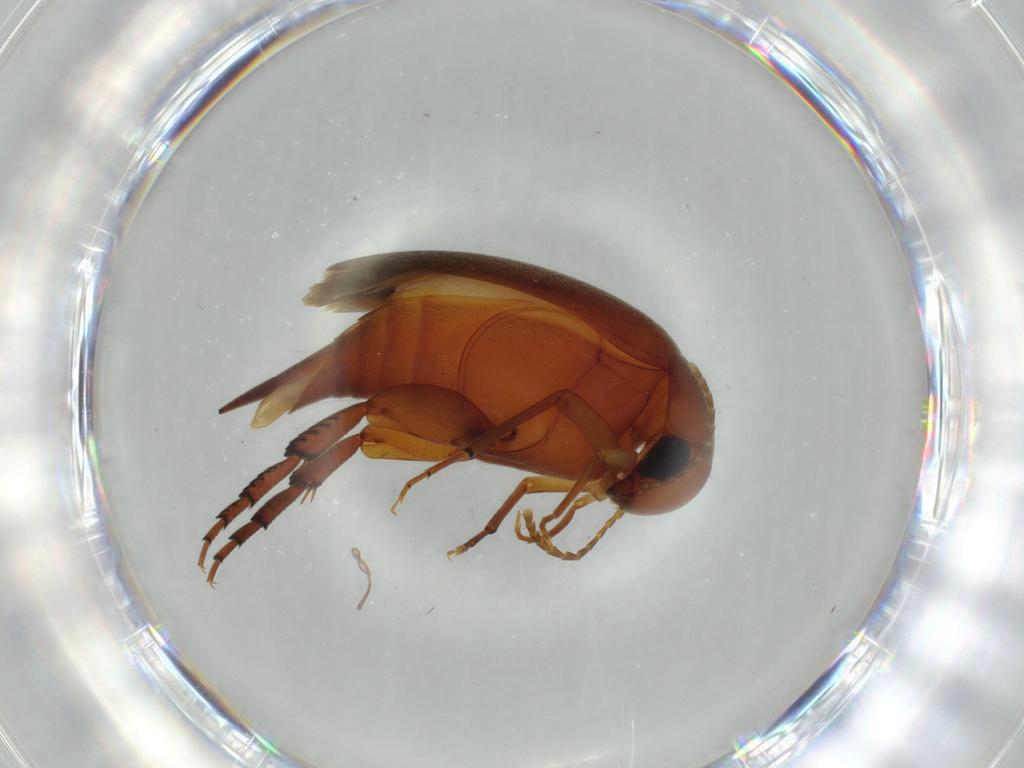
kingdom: Animalia
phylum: Arthropoda
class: Insecta
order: Coleoptera
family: Mordellidae
